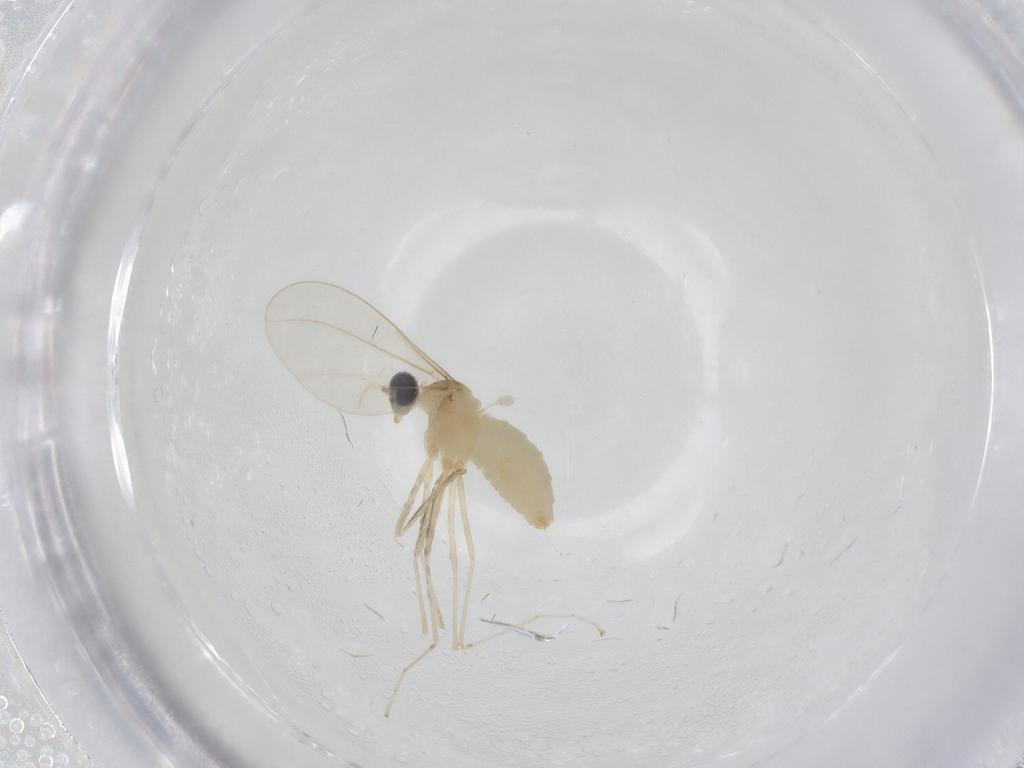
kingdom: Animalia
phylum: Arthropoda
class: Insecta
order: Diptera
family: Cecidomyiidae
